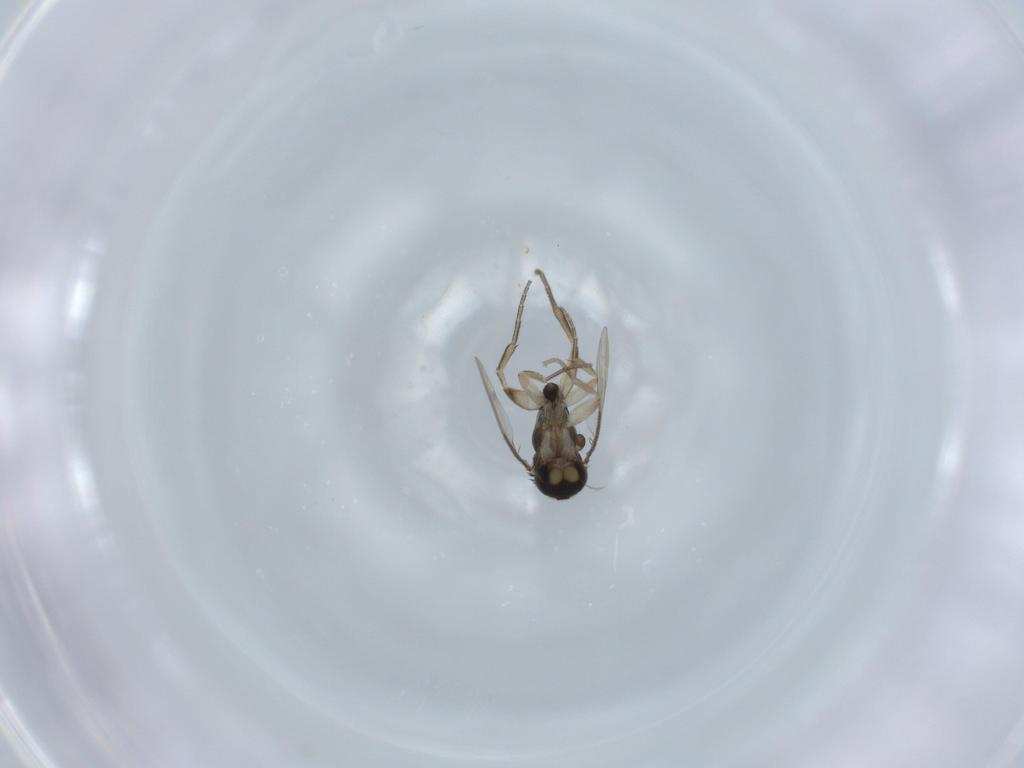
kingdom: Animalia
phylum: Arthropoda
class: Insecta
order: Diptera
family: Phoridae
